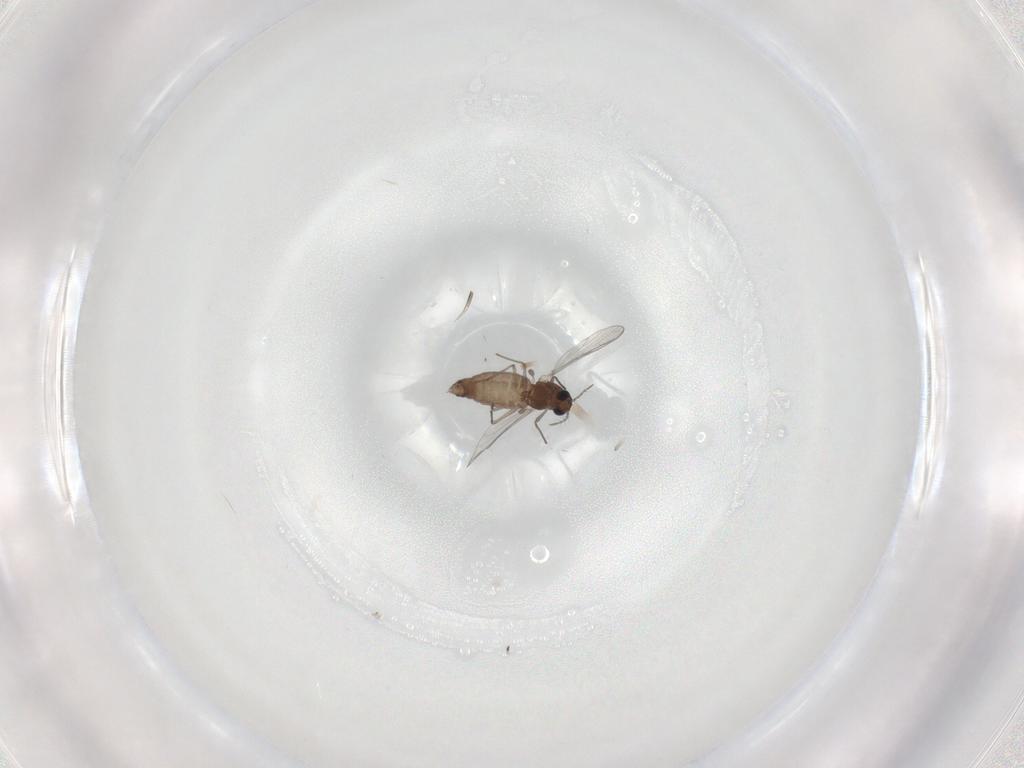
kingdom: Animalia
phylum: Arthropoda
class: Insecta
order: Diptera
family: Chironomidae
